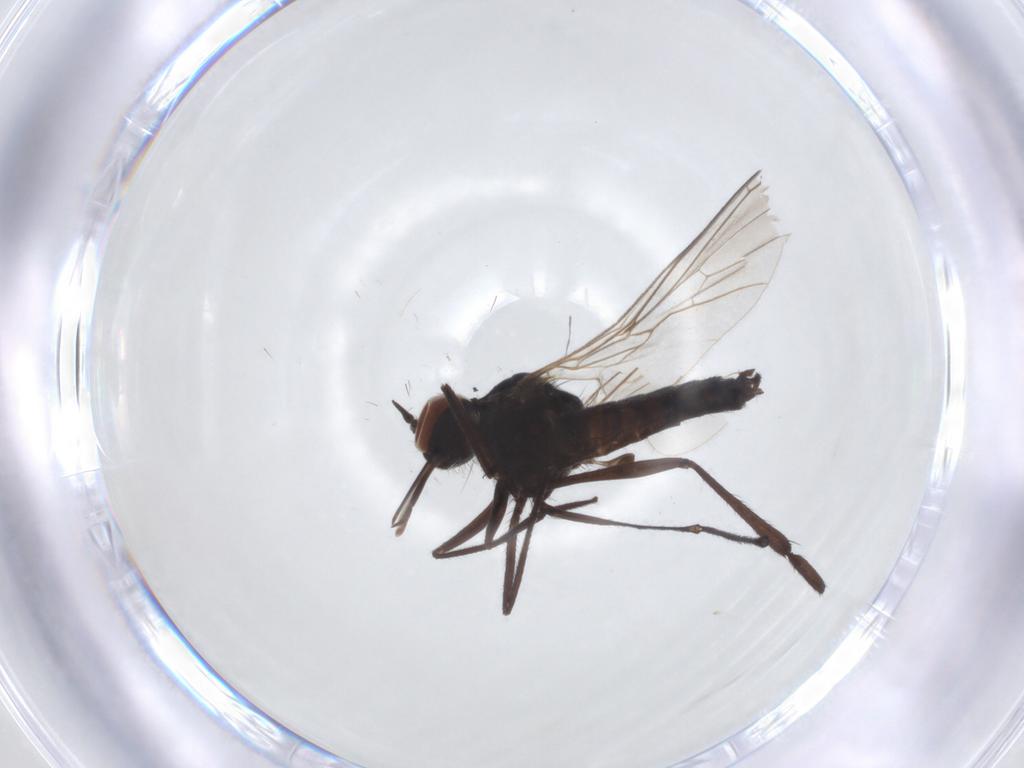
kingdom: Animalia
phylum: Arthropoda
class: Insecta
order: Diptera
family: Empididae
